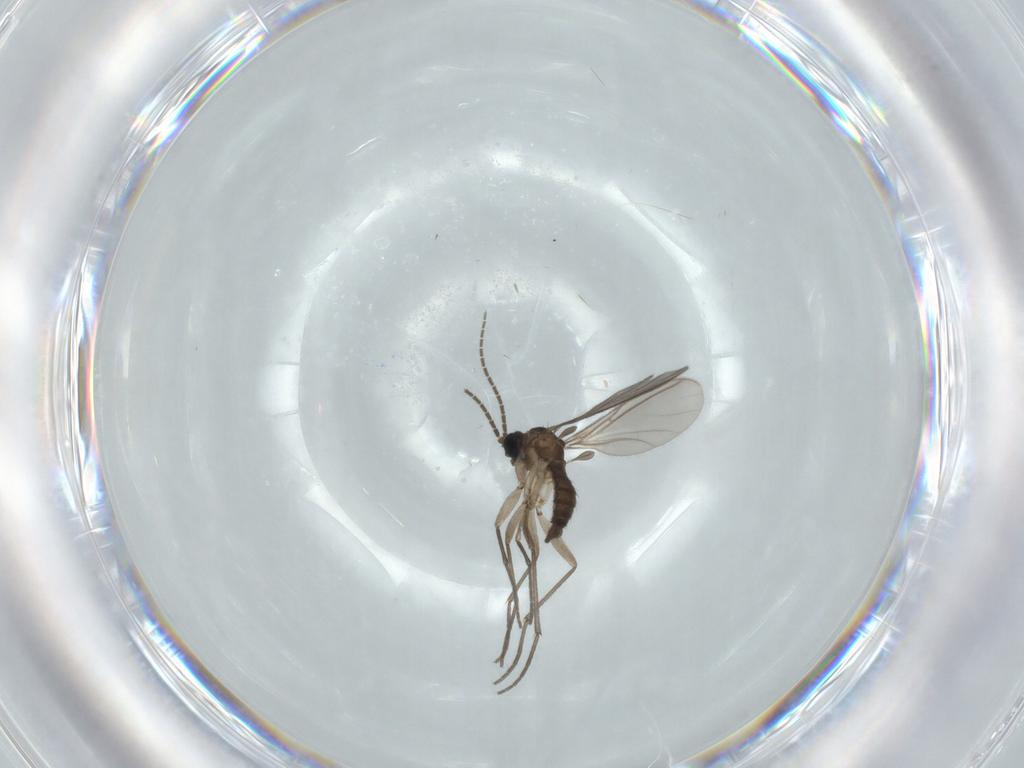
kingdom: Animalia
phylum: Arthropoda
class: Insecta
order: Diptera
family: Sciaridae
